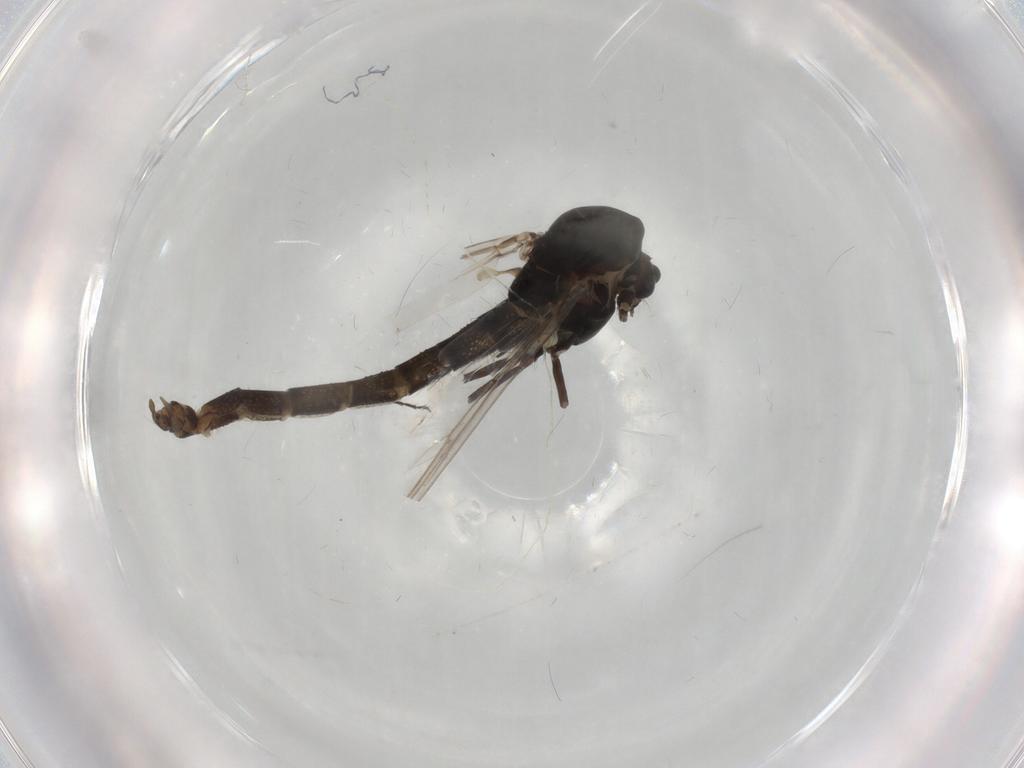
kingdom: Animalia
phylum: Arthropoda
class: Insecta
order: Diptera
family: Chironomidae
